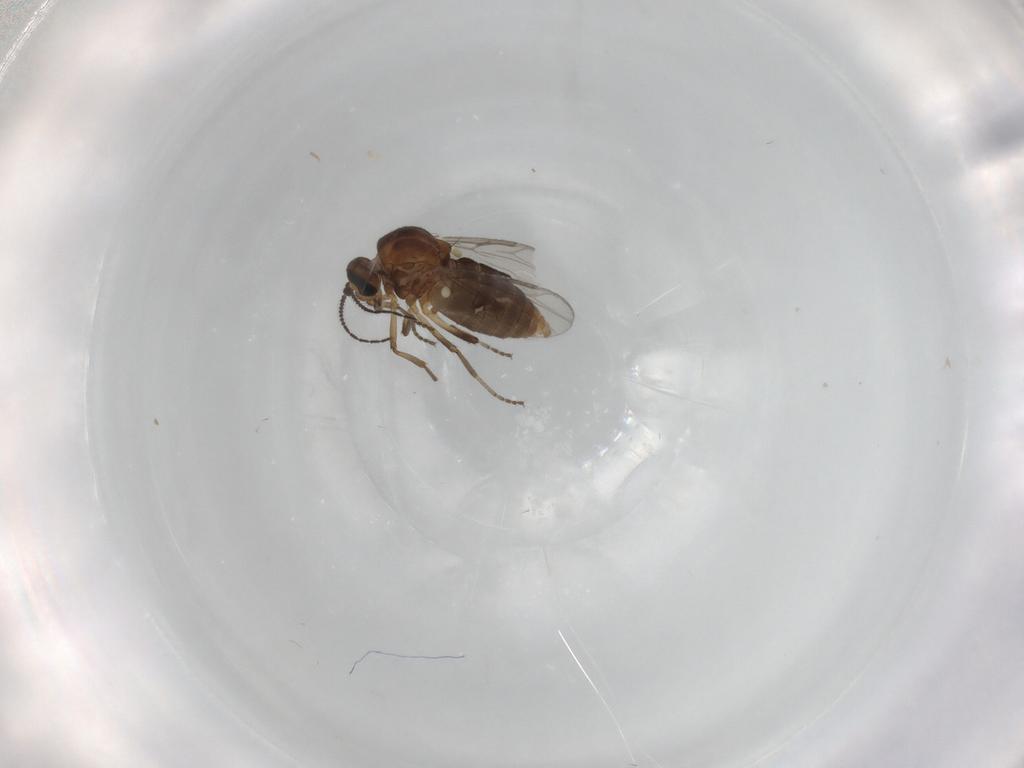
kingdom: Animalia
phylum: Arthropoda
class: Insecta
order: Diptera
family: Ceratopogonidae
